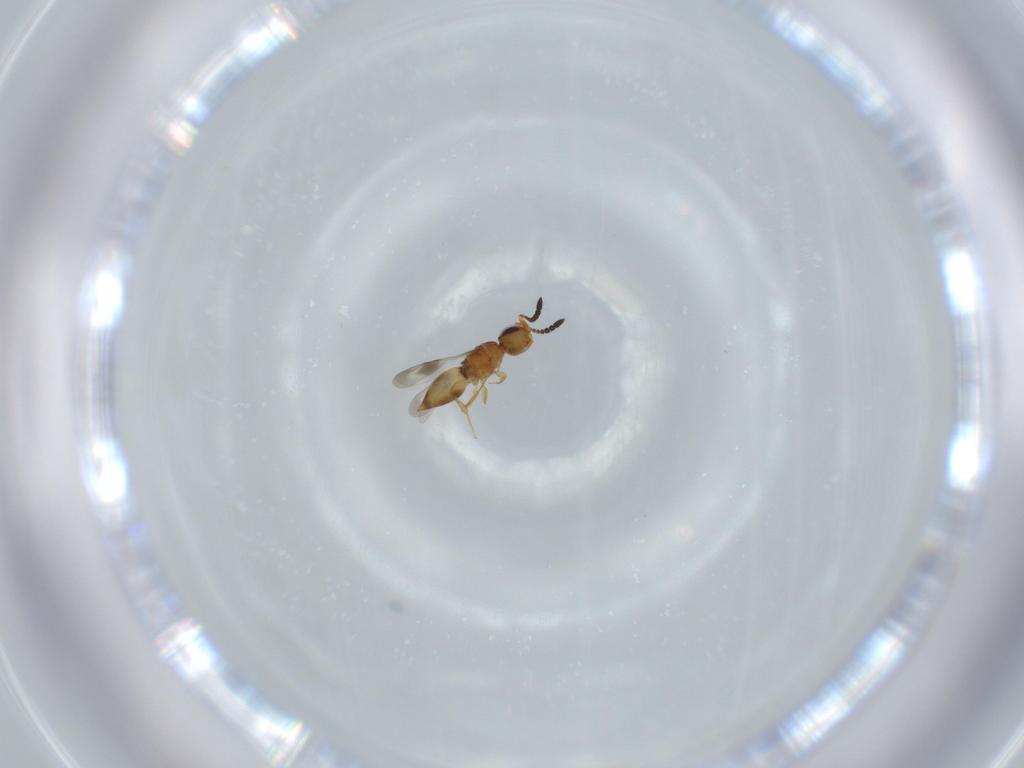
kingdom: Animalia
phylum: Arthropoda
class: Insecta
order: Hymenoptera
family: Ceraphronidae
